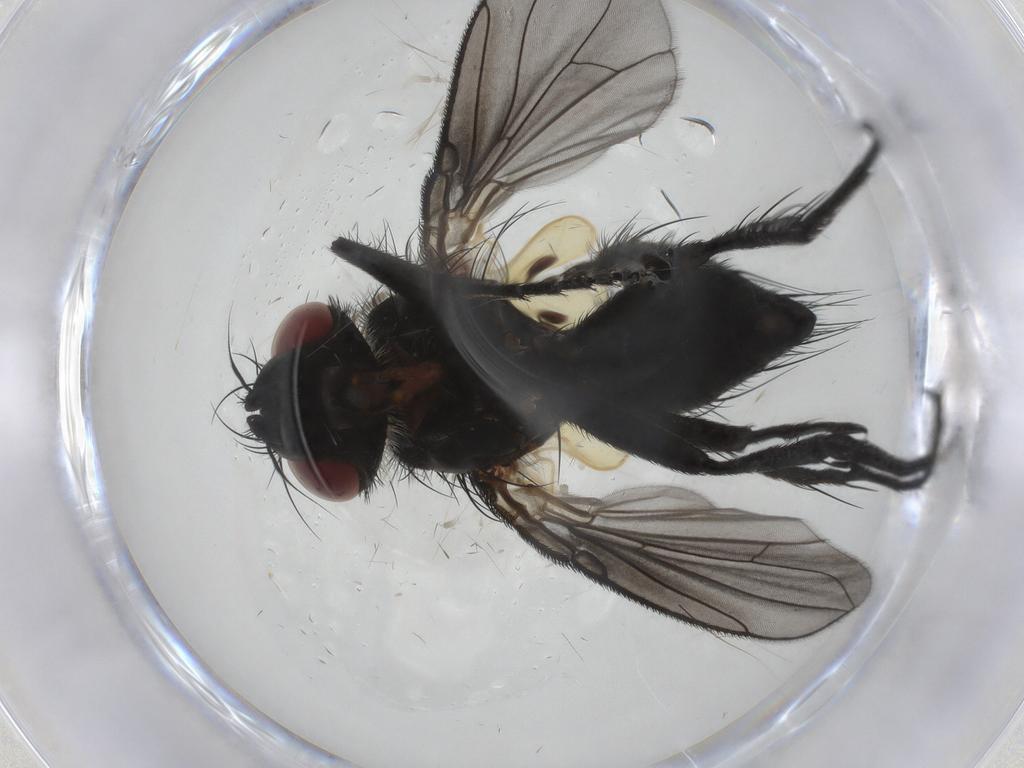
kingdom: Animalia
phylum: Arthropoda
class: Insecta
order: Diptera
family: Tachinidae
